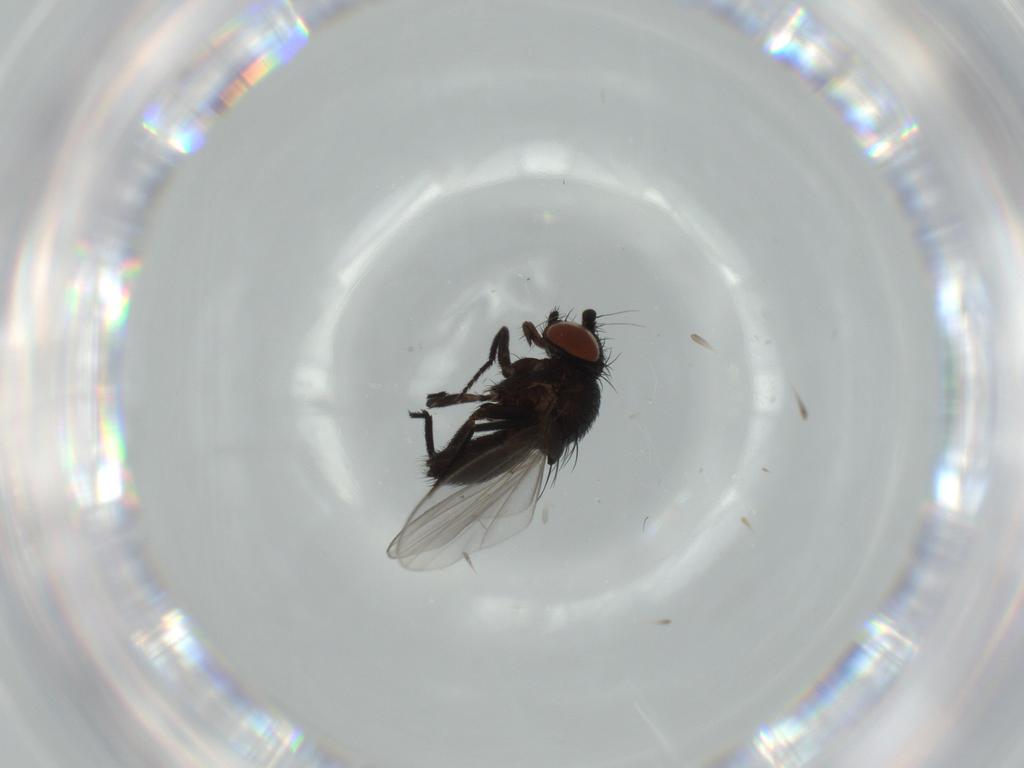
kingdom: Animalia
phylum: Arthropoda
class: Insecta
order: Diptera
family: Milichiidae
